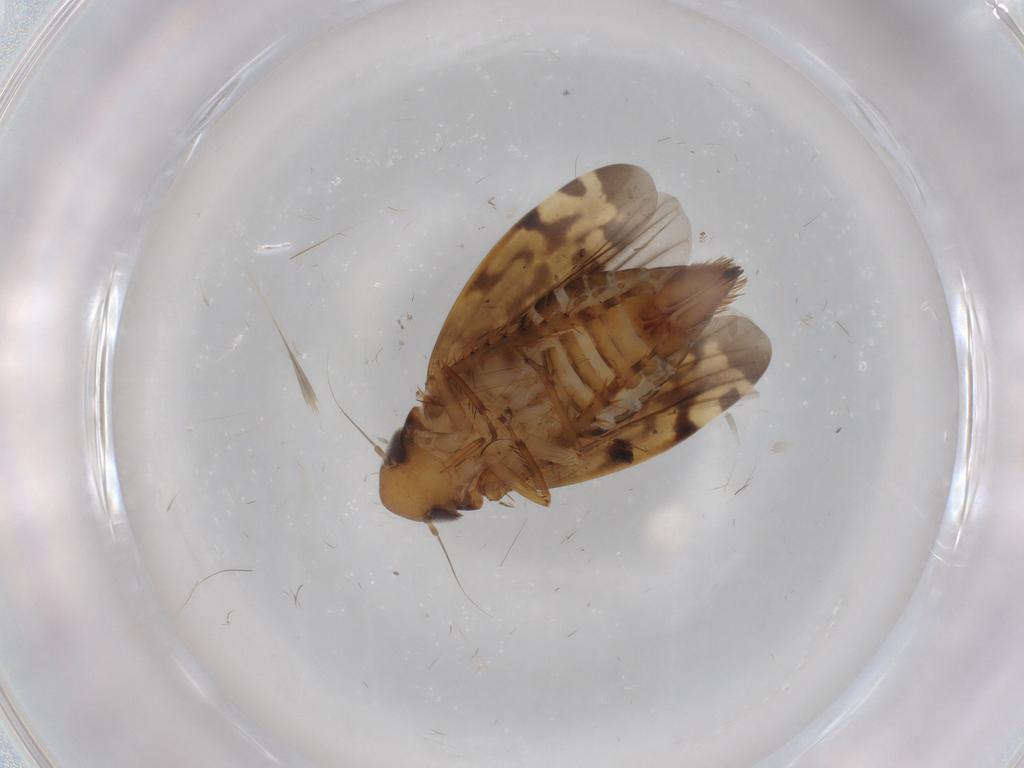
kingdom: Animalia
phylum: Arthropoda
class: Insecta
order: Hemiptera
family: Cicadellidae
